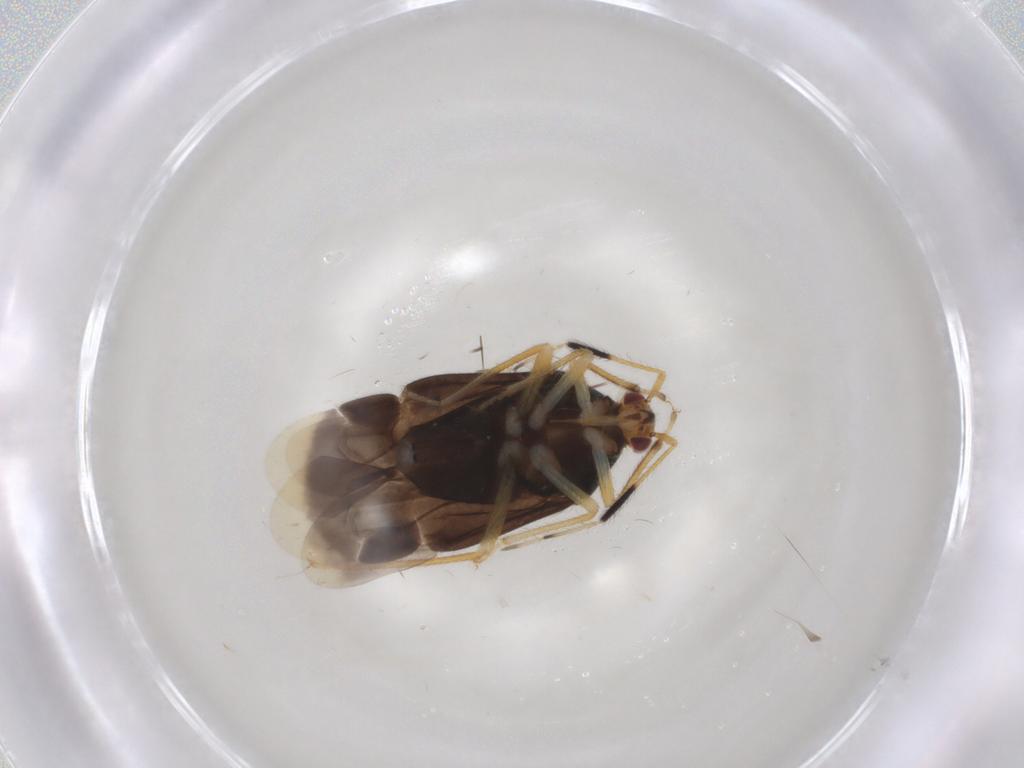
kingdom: Animalia
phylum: Arthropoda
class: Insecta
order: Hemiptera
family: Miridae
